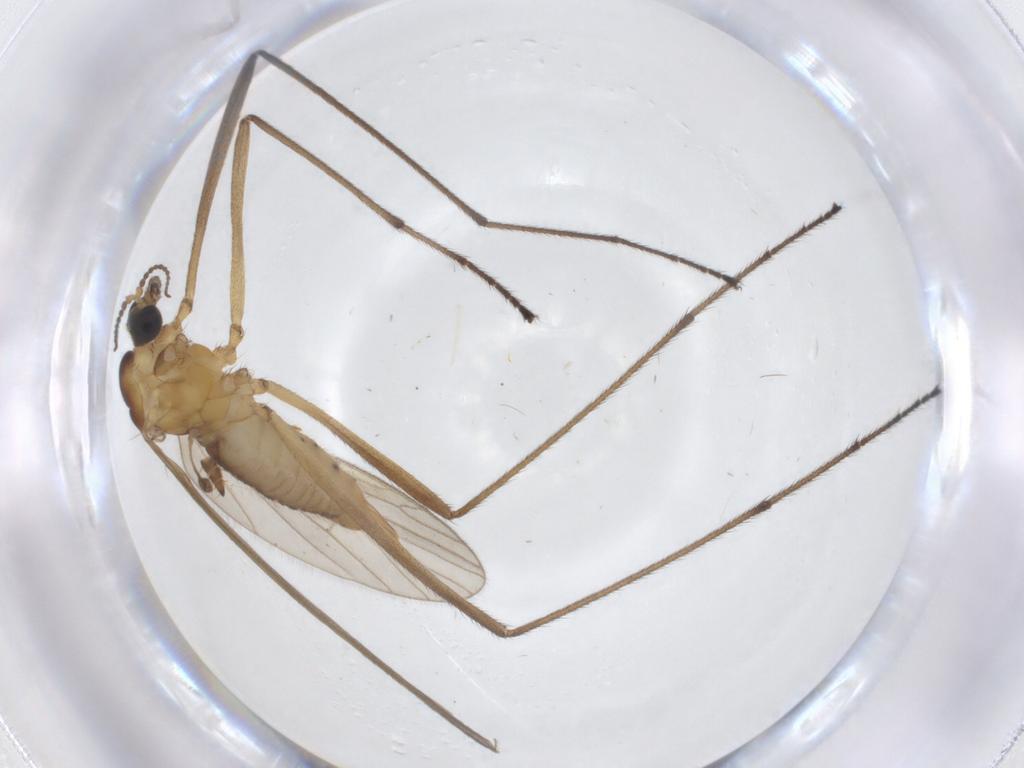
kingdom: Animalia
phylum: Arthropoda
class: Insecta
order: Diptera
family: Limoniidae
